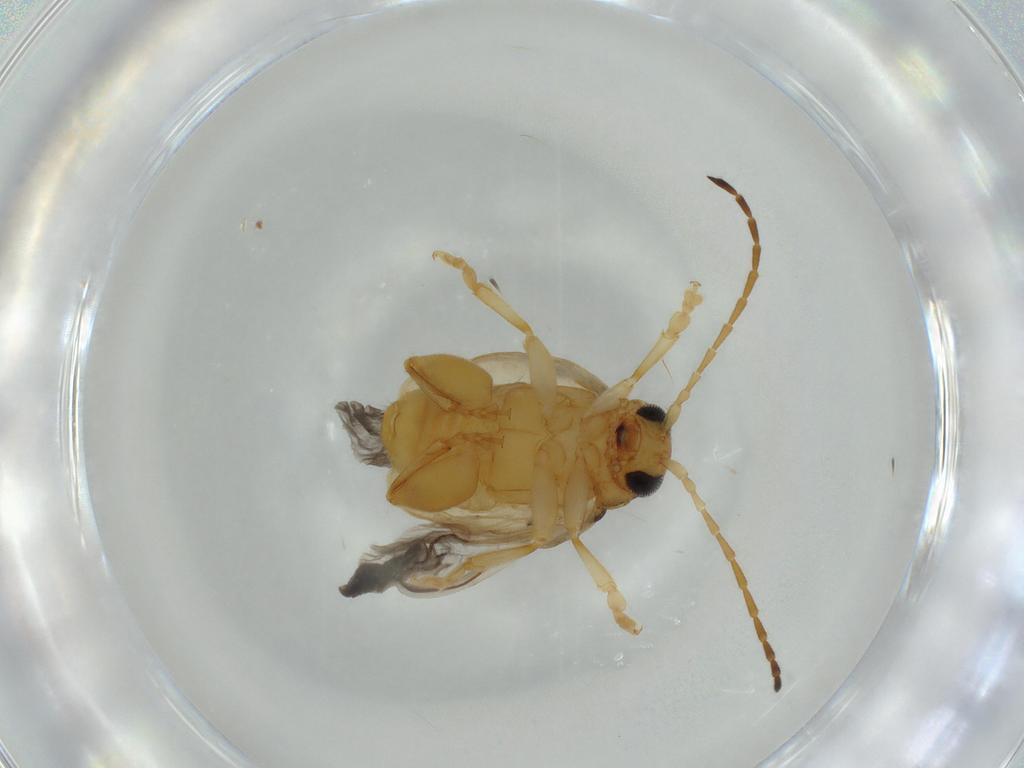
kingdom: Animalia
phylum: Arthropoda
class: Insecta
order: Coleoptera
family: Chrysomelidae
